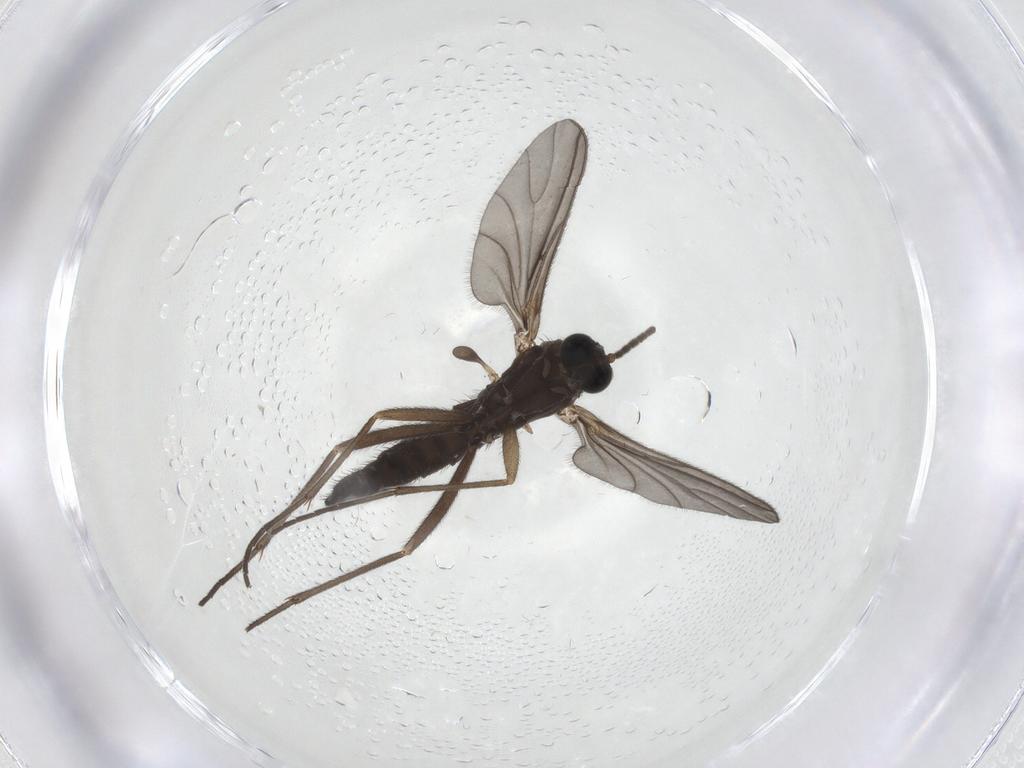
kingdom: Animalia
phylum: Arthropoda
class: Insecta
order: Diptera
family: Sciaridae
